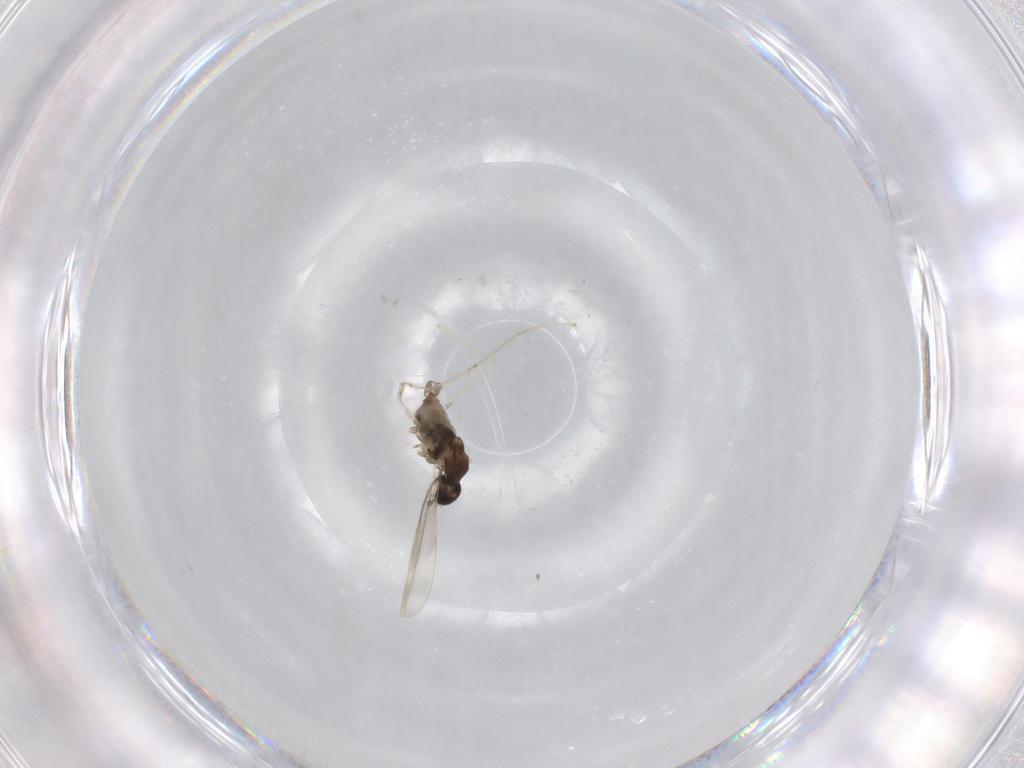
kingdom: Animalia
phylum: Arthropoda
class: Insecta
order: Diptera
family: Cecidomyiidae
